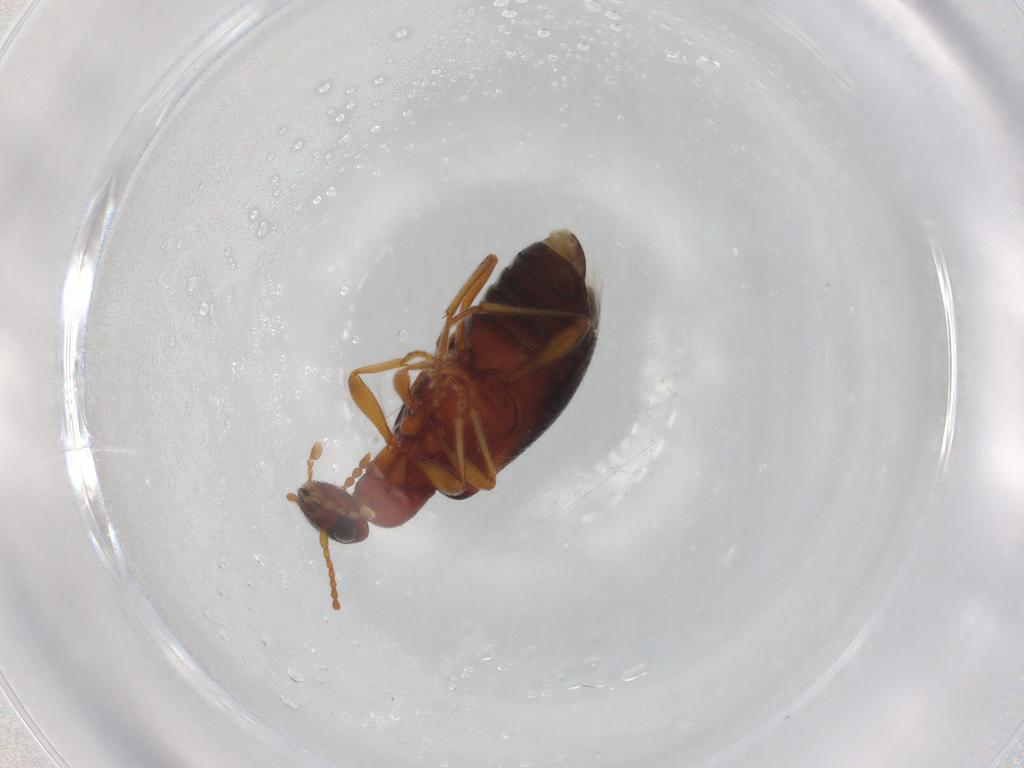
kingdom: Animalia
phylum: Arthropoda
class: Insecta
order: Coleoptera
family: Anthicidae
